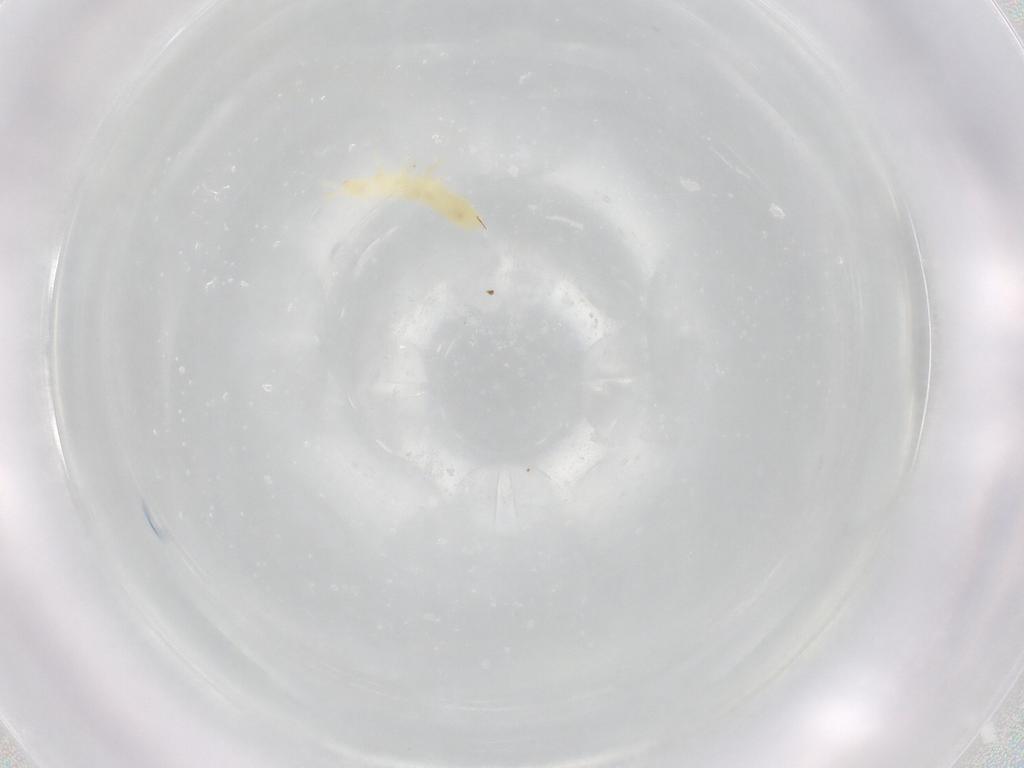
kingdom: Animalia
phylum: Arthropoda
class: Collembola
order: Poduromorpha
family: Onychiuridae
